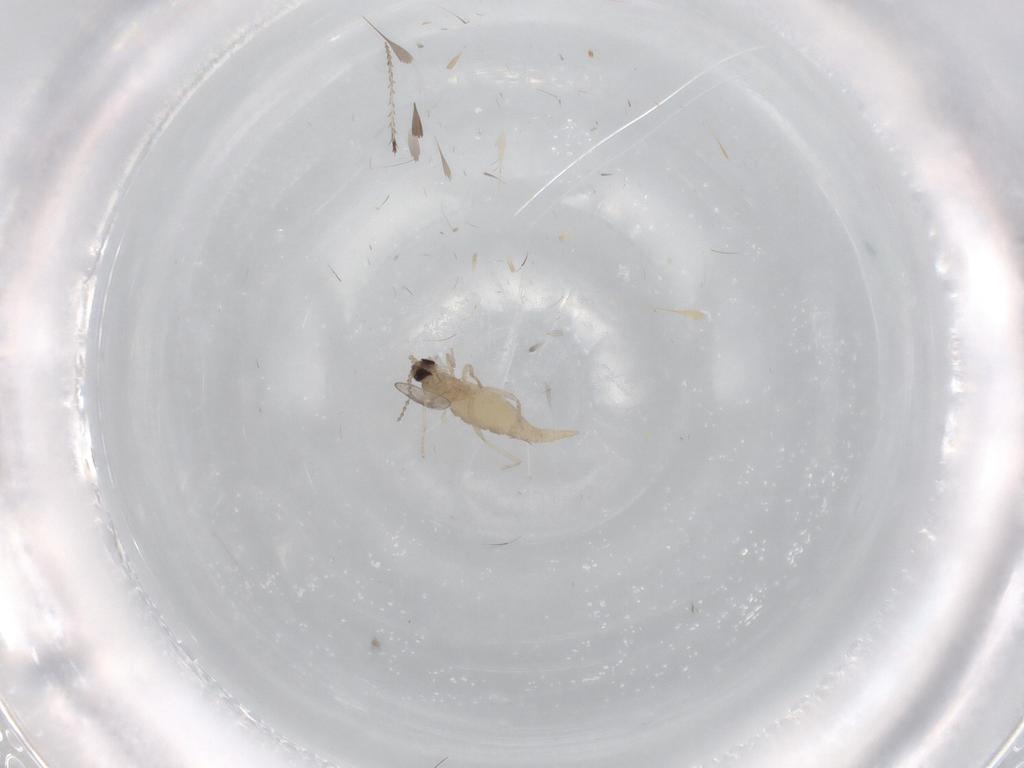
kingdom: Animalia
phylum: Arthropoda
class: Insecta
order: Diptera
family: Cecidomyiidae
